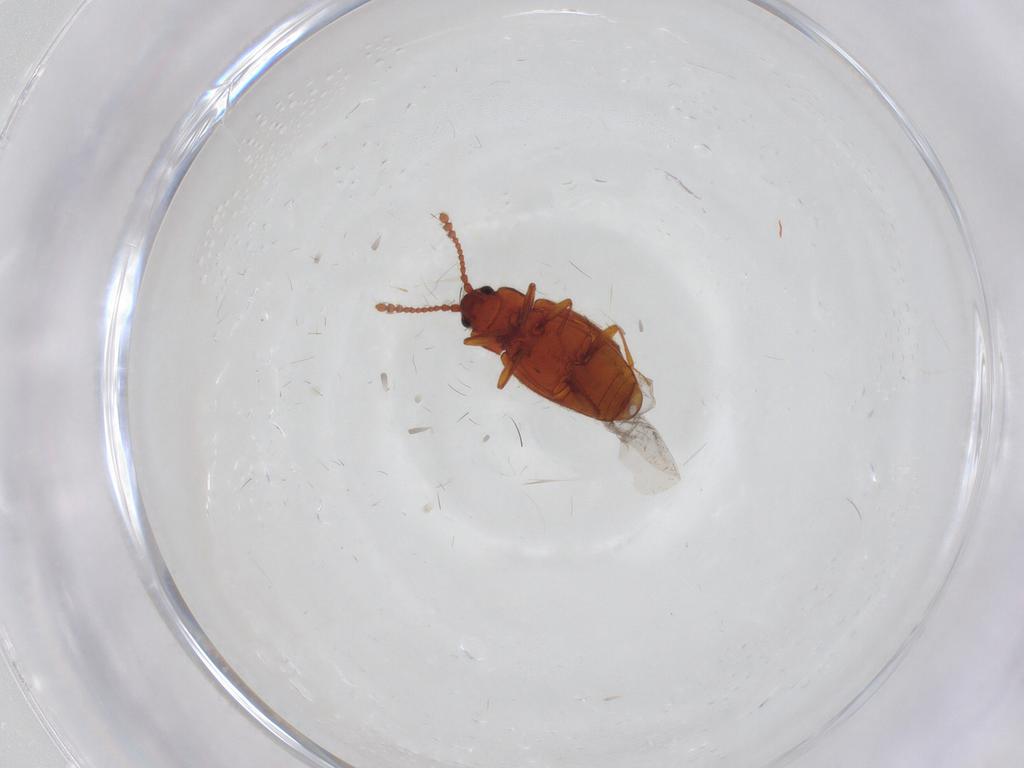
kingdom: Animalia
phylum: Arthropoda
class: Insecta
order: Coleoptera
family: Cryptophagidae
